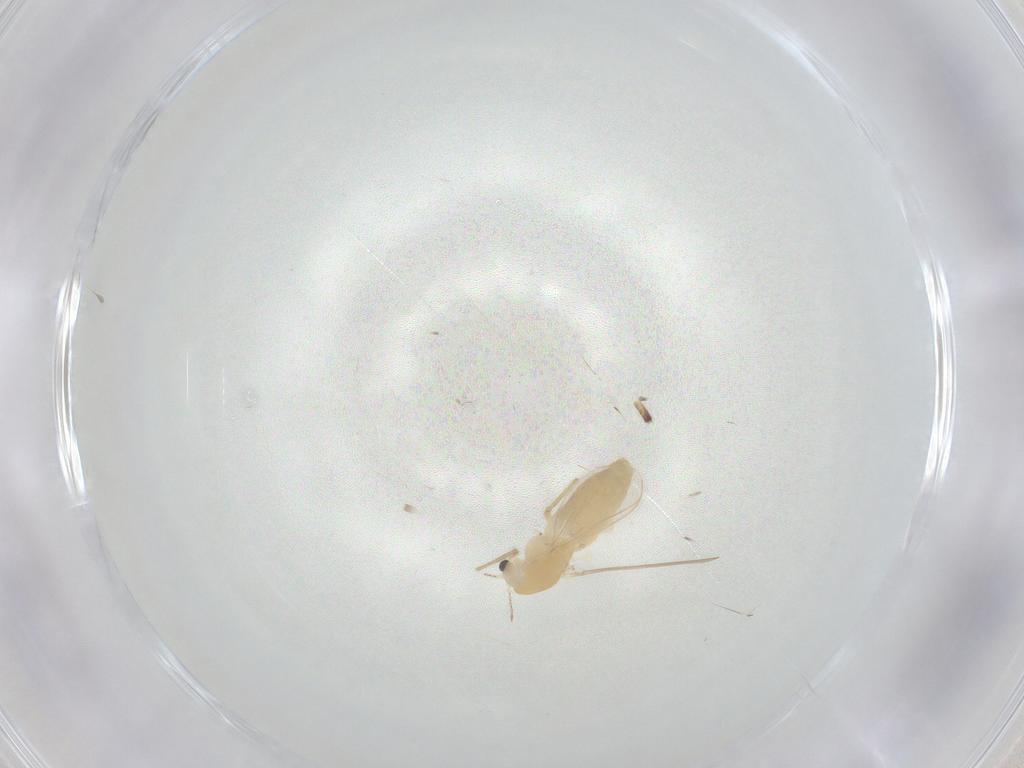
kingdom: Animalia
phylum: Arthropoda
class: Insecta
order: Diptera
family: Chironomidae
